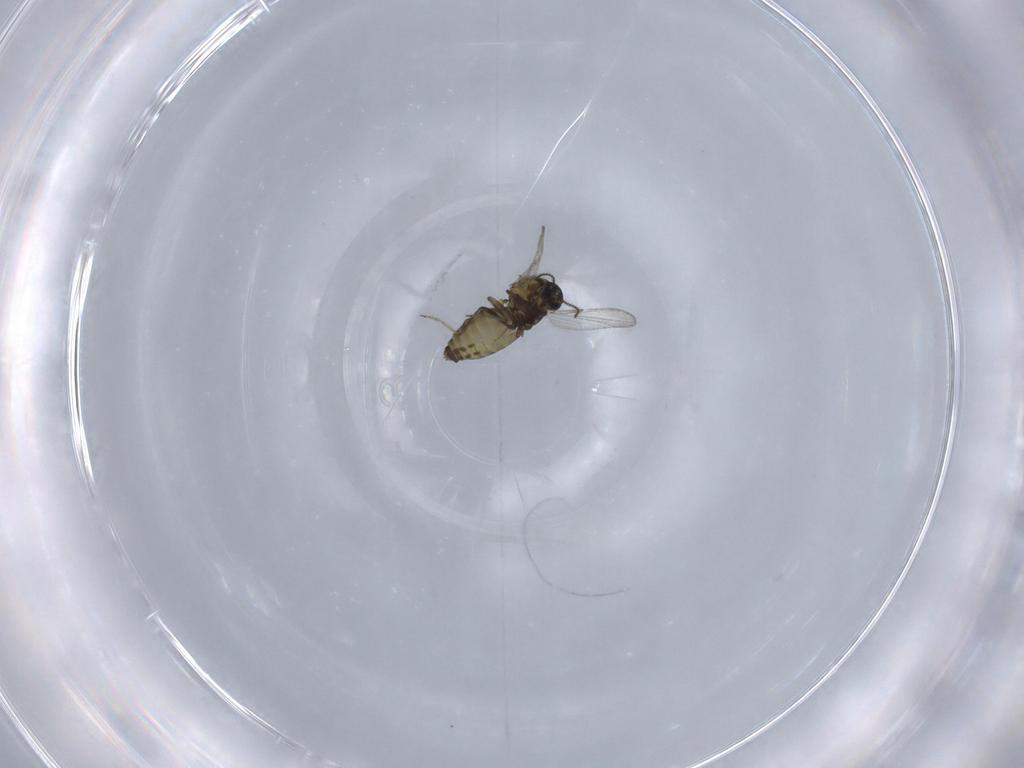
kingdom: Animalia
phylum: Arthropoda
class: Insecta
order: Diptera
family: Ceratopogonidae
